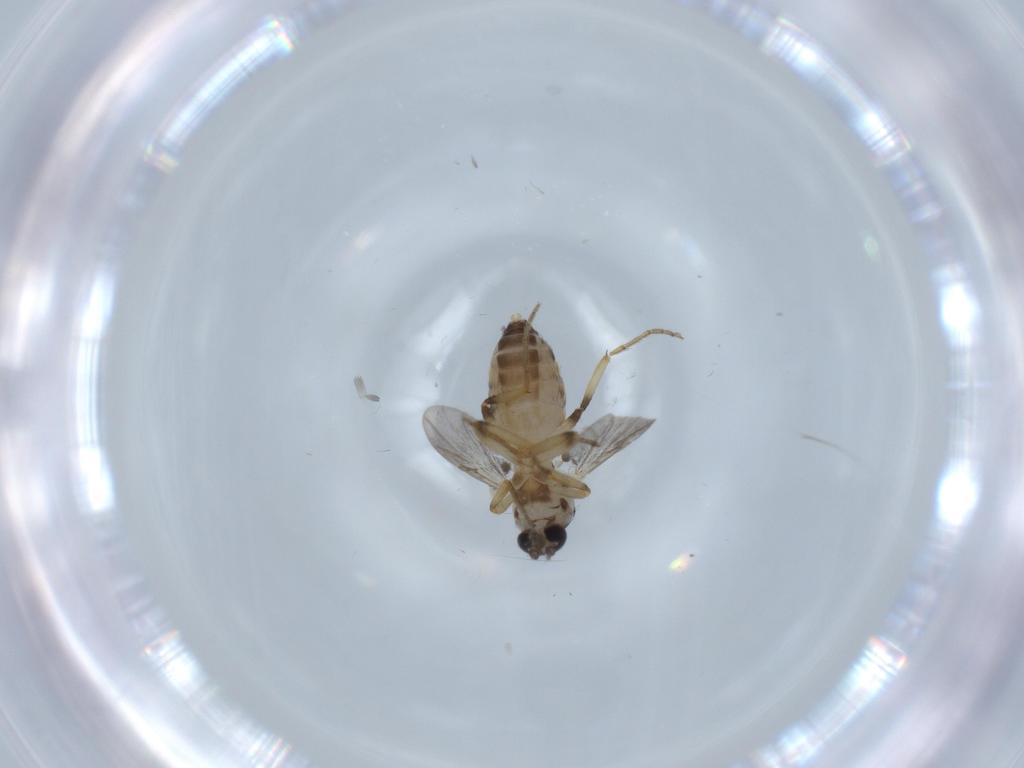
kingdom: Animalia
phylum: Arthropoda
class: Insecta
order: Diptera
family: Ceratopogonidae
